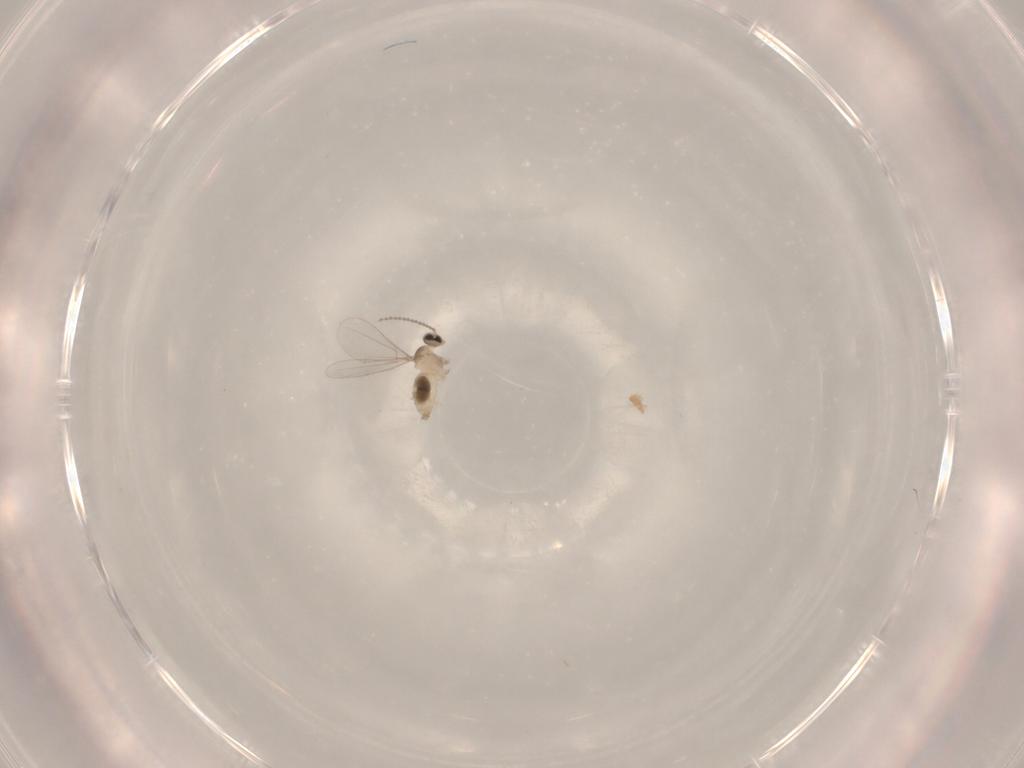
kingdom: Animalia
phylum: Arthropoda
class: Insecta
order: Diptera
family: Cecidomyiidae
